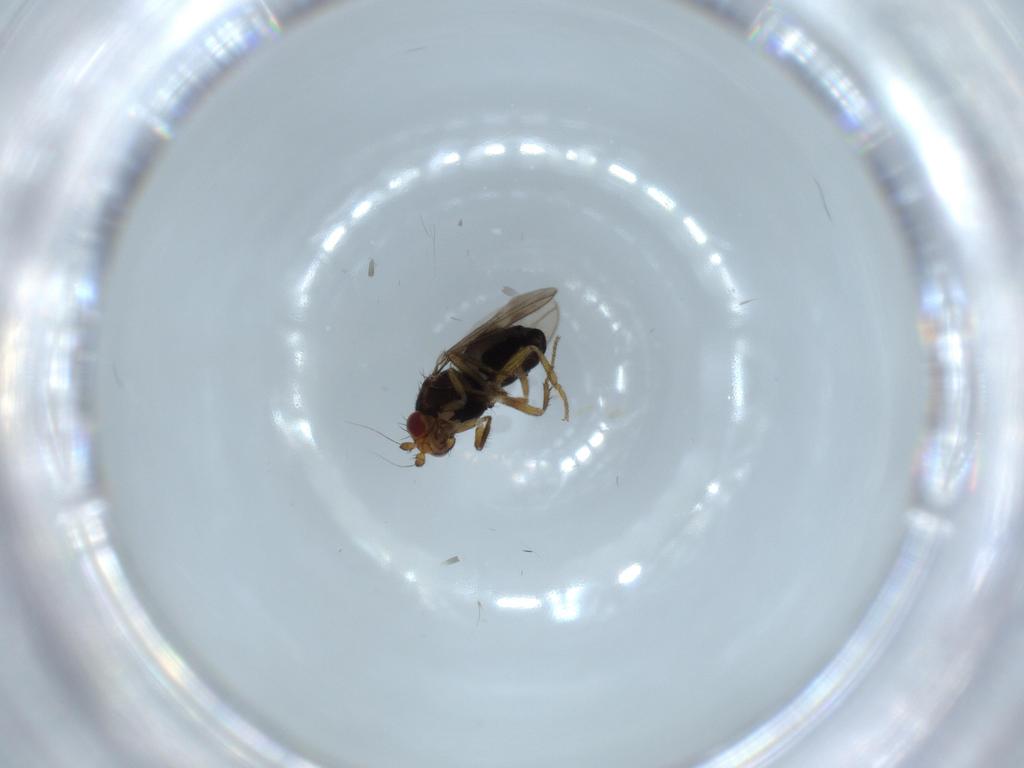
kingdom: Animalia
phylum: Arthropoda
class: Insecta
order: Diptera
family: Sphaeroceridae
